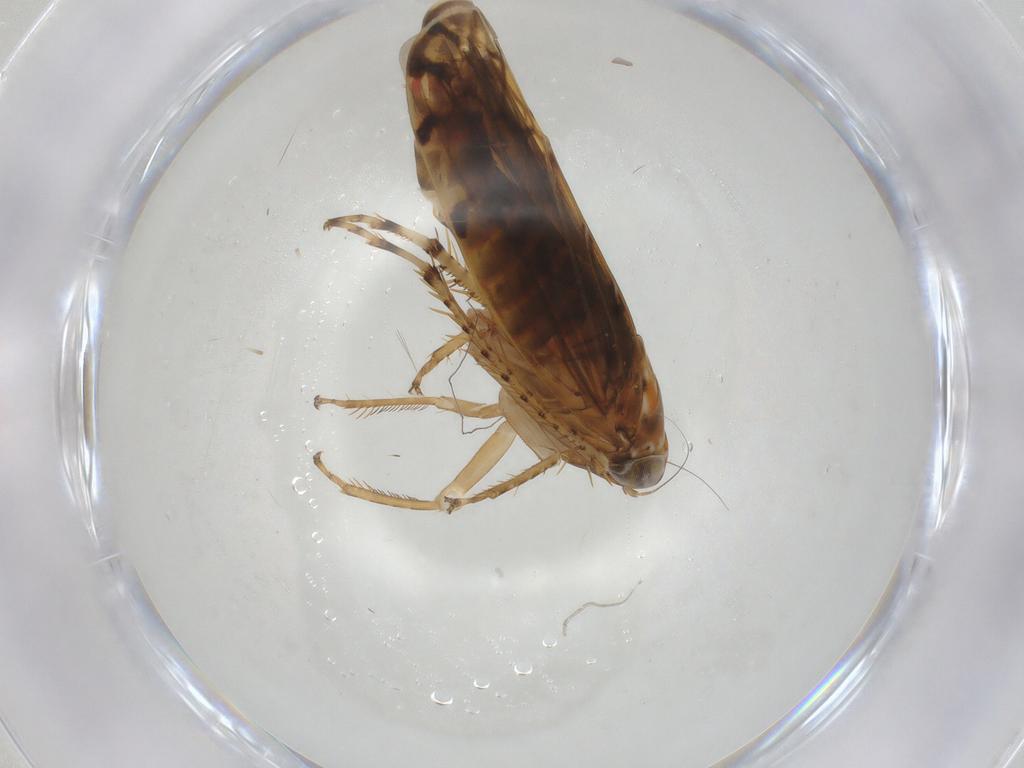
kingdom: Animalia
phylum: Arthropoda
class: Insecta
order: Hemiptera
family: Cicadellidae
